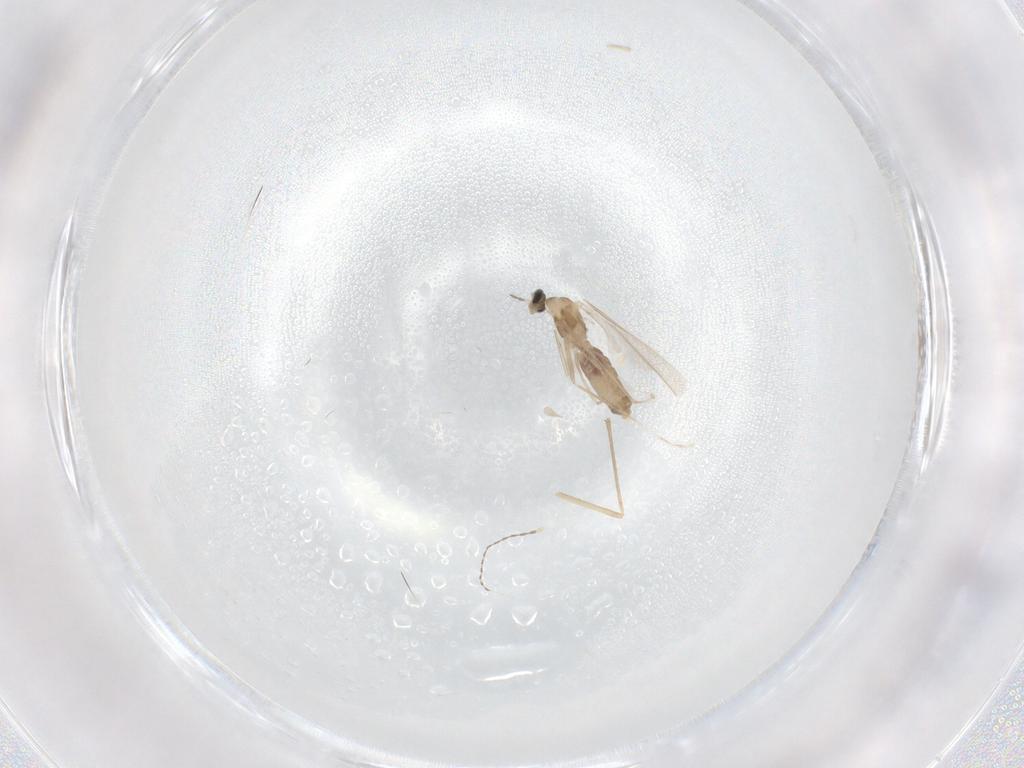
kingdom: Animalia
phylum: Arthropoda
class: Insecta
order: Diptera
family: Cecidomyiidae
